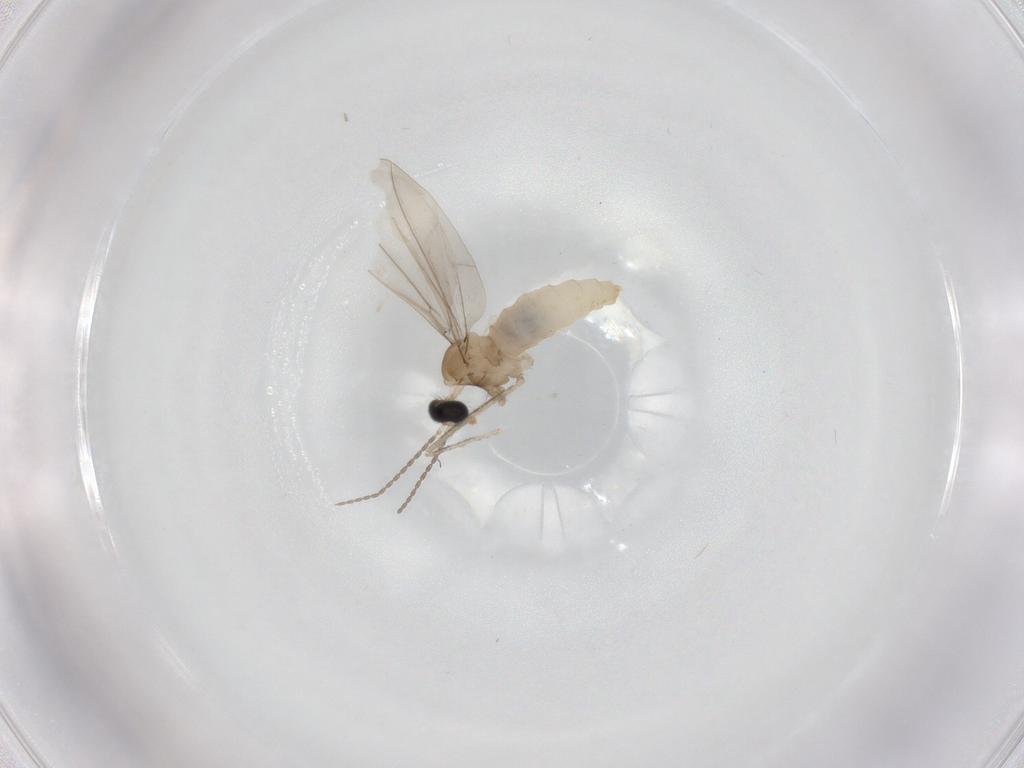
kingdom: Animalia
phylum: Arthropoda
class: Insecta
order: Diptera
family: Cecidomyiidae
